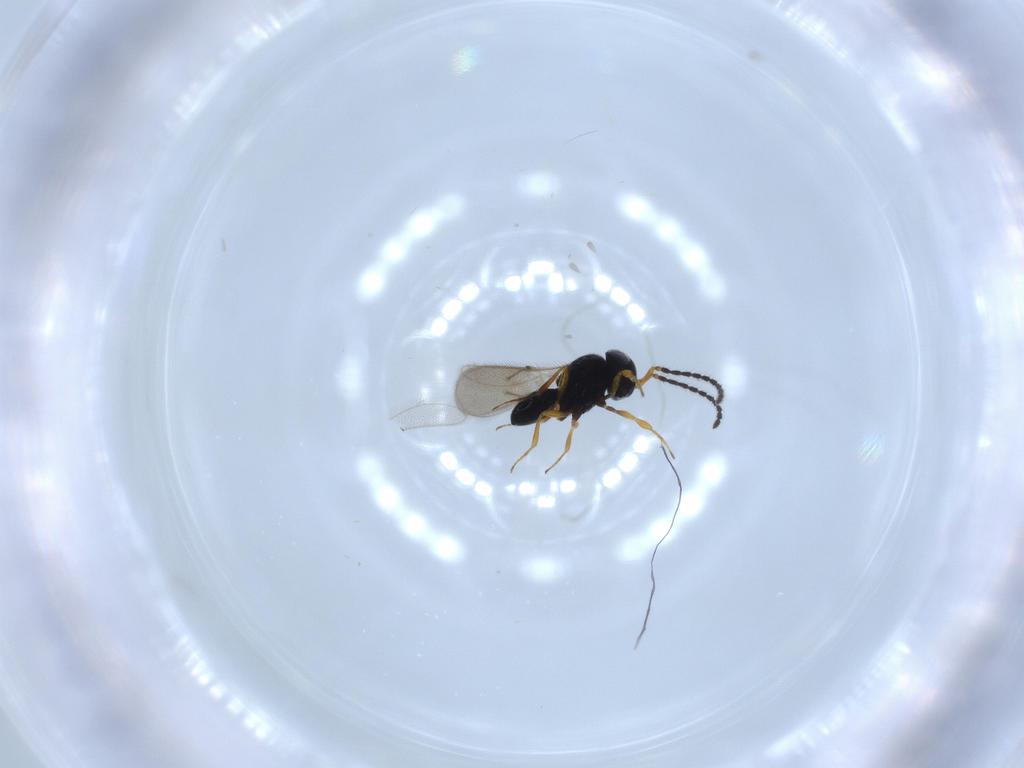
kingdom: Animalia
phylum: Arthropoda
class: Insecta
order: Hymenoptera
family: Scelionidae
